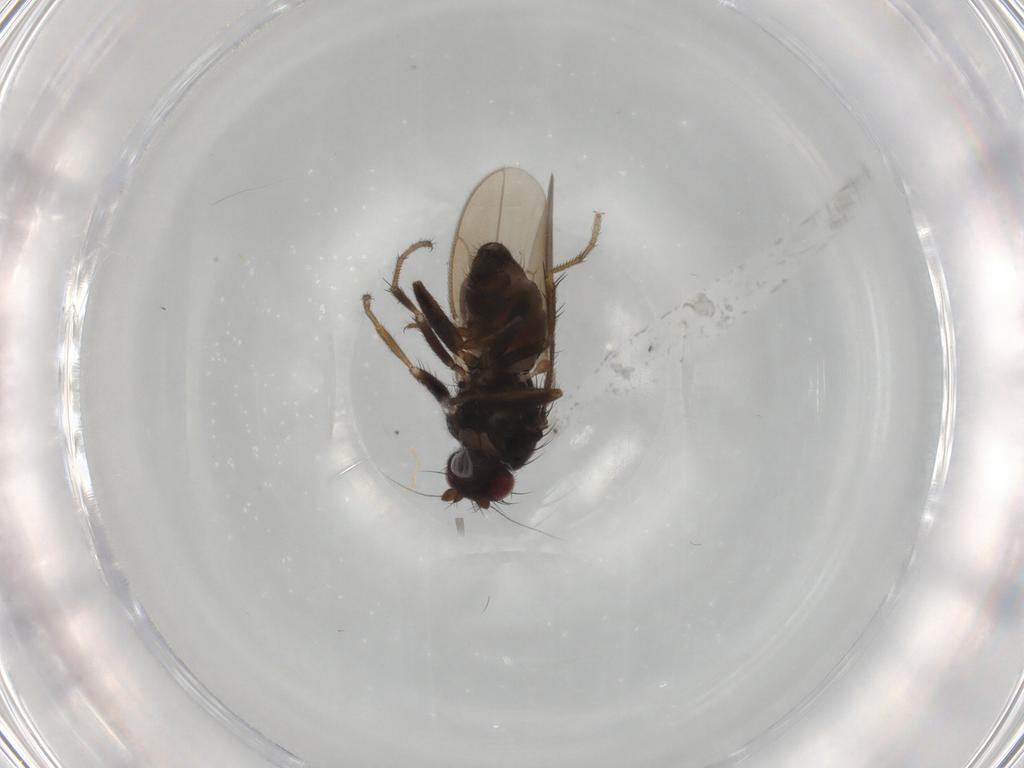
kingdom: Animalia
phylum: Arthropoda
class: Insecta
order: Diptera
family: Sphaeroceridae
